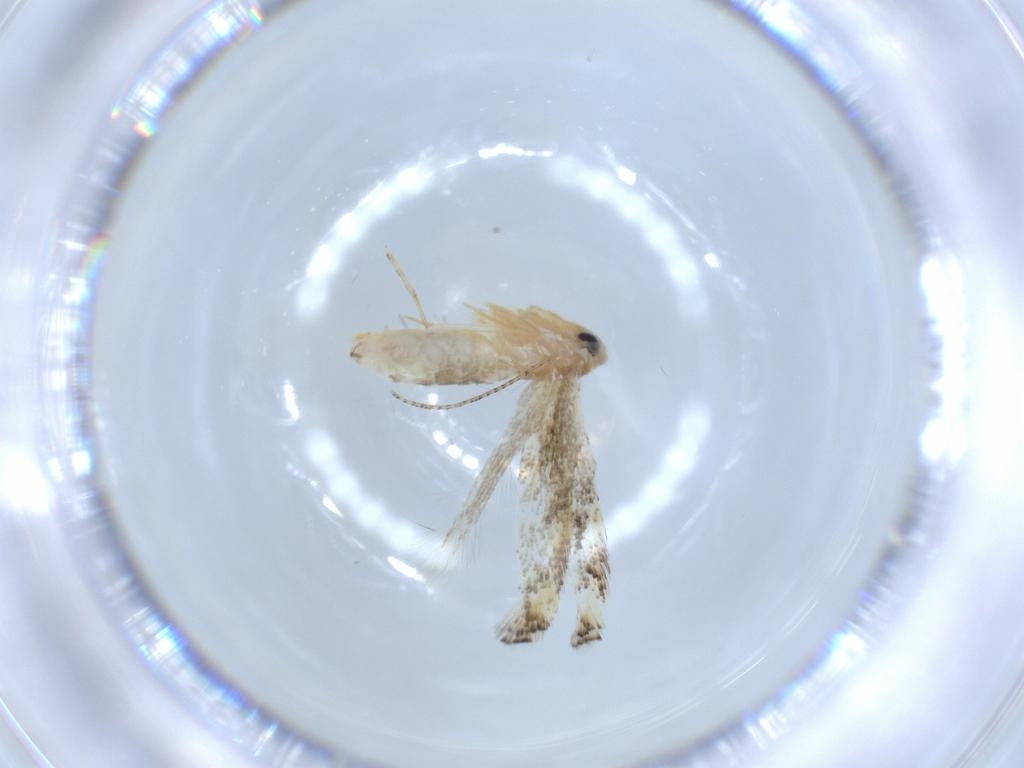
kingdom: Animalia
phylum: Arthropoda
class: Insecta
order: Lepidoptera
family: Bucculatricidae
